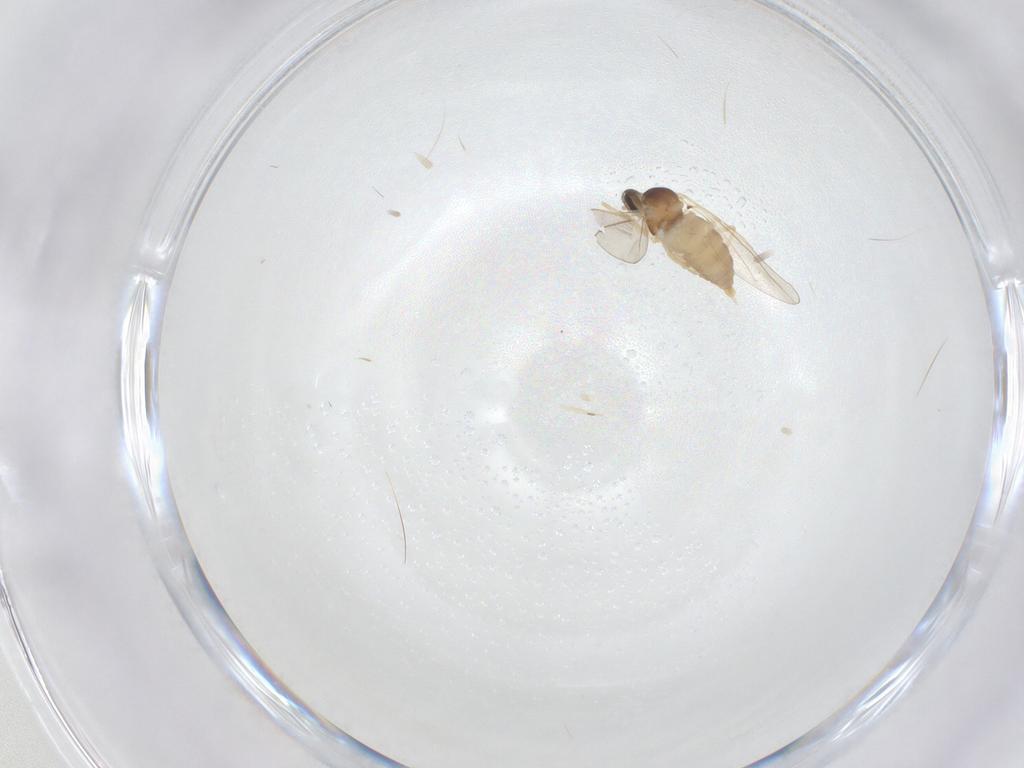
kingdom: Animalia
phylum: Arthropoda
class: Insecta
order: Diptera
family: Cecidomyiidae
